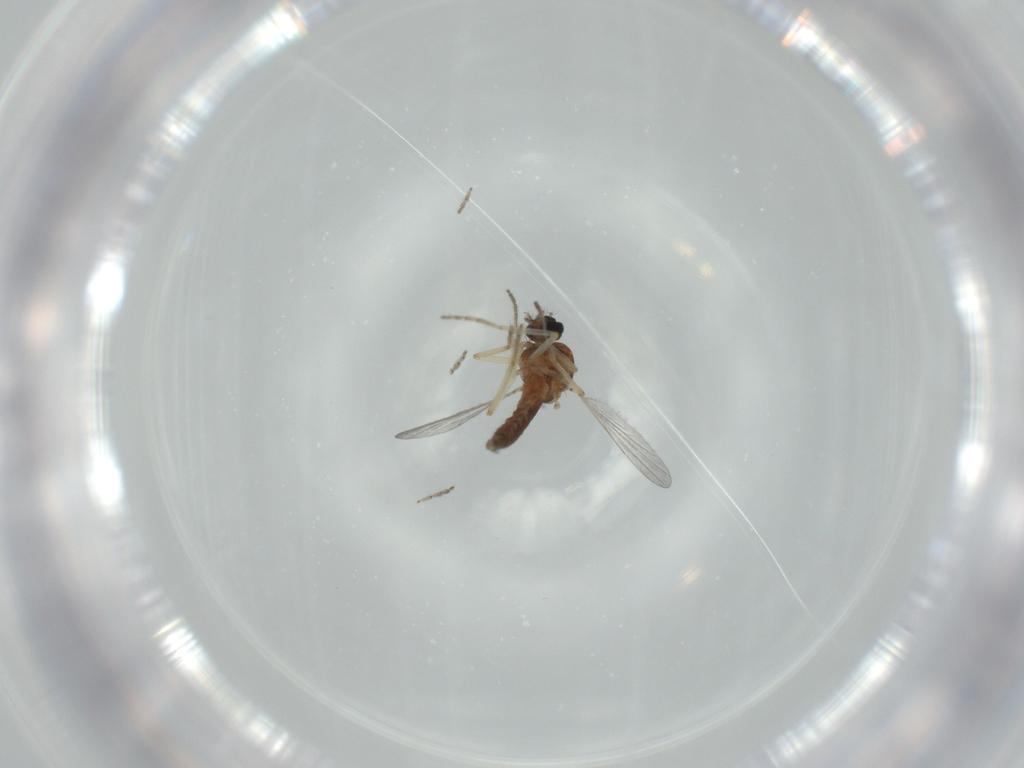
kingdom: Animalia
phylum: Arthropoda
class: Insecta
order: Diptera
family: Ceratopogonidae
